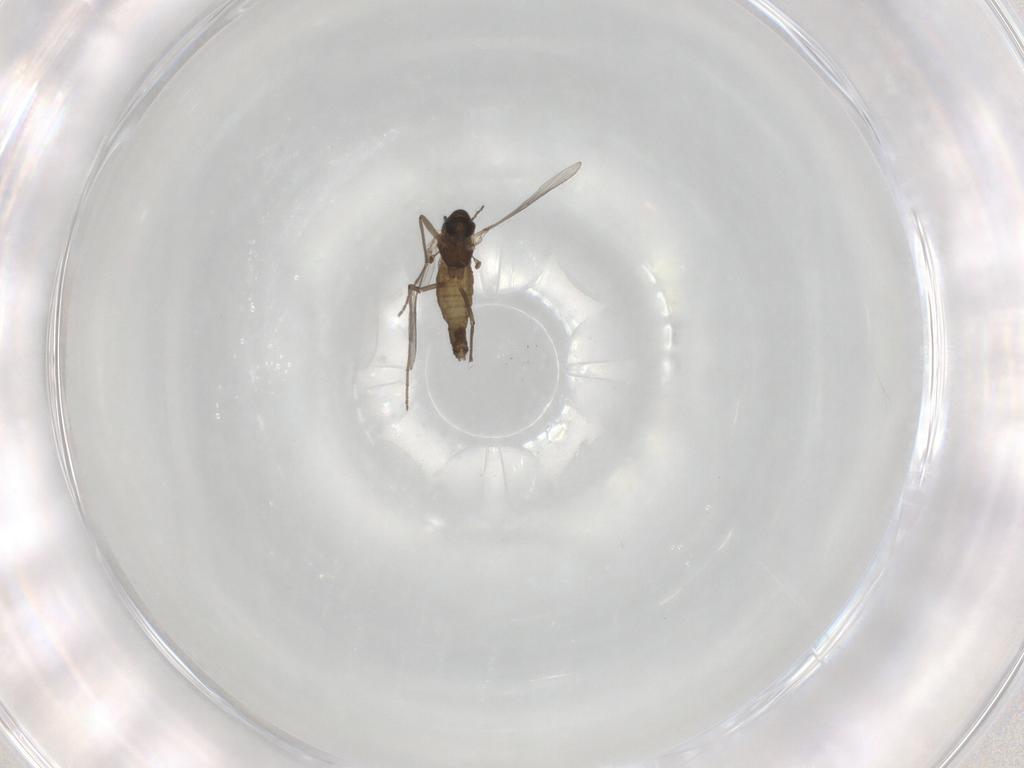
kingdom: Animalia
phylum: Arthropoda
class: Insecta
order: Diptera
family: Chironomidae
